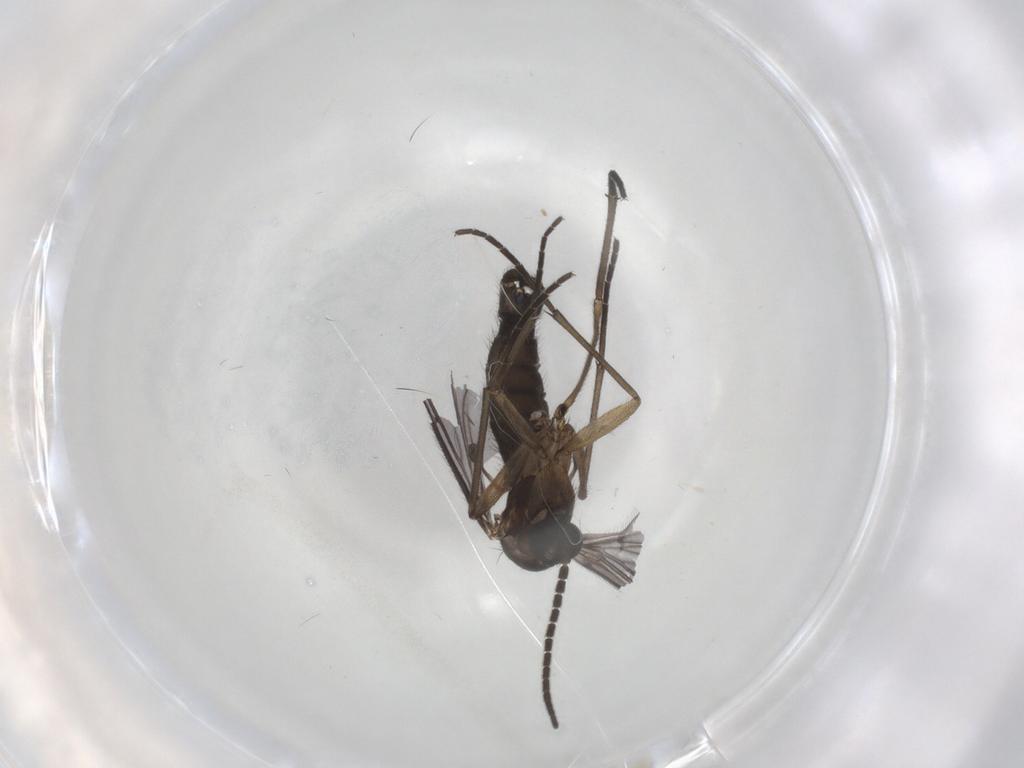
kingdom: Animalia
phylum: Arthropoda
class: Insecta
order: Diptera
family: Sciaridae
